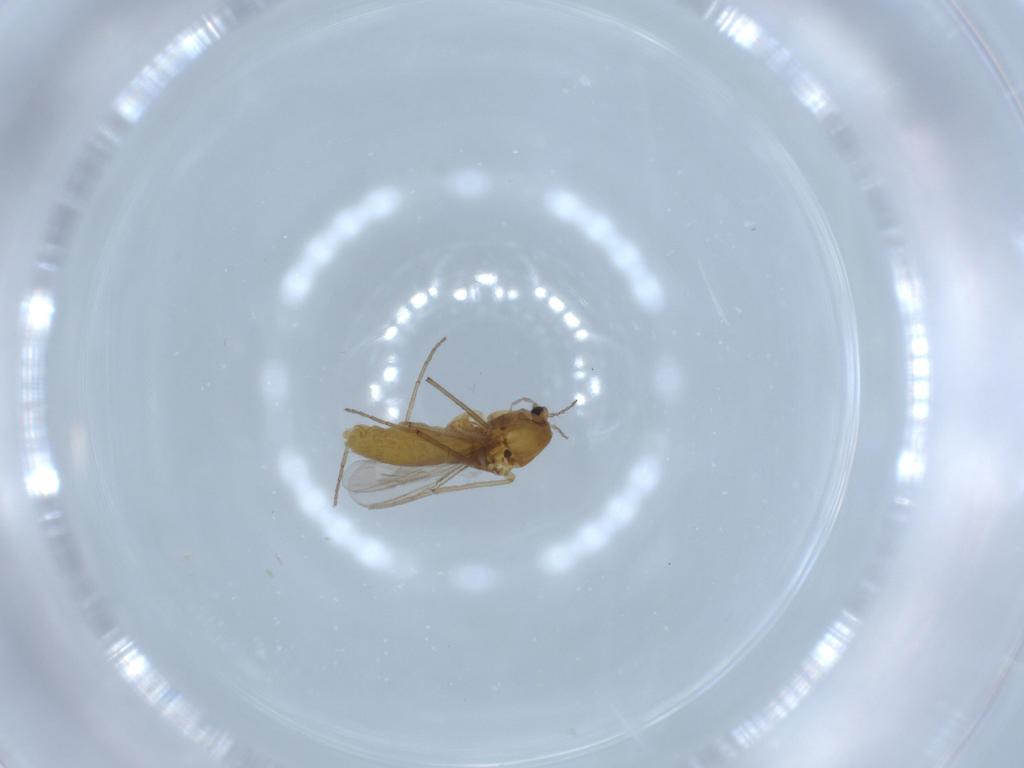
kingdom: Animalia
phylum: Arthropoda
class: Insecta
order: Diptera
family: Chironomidae
